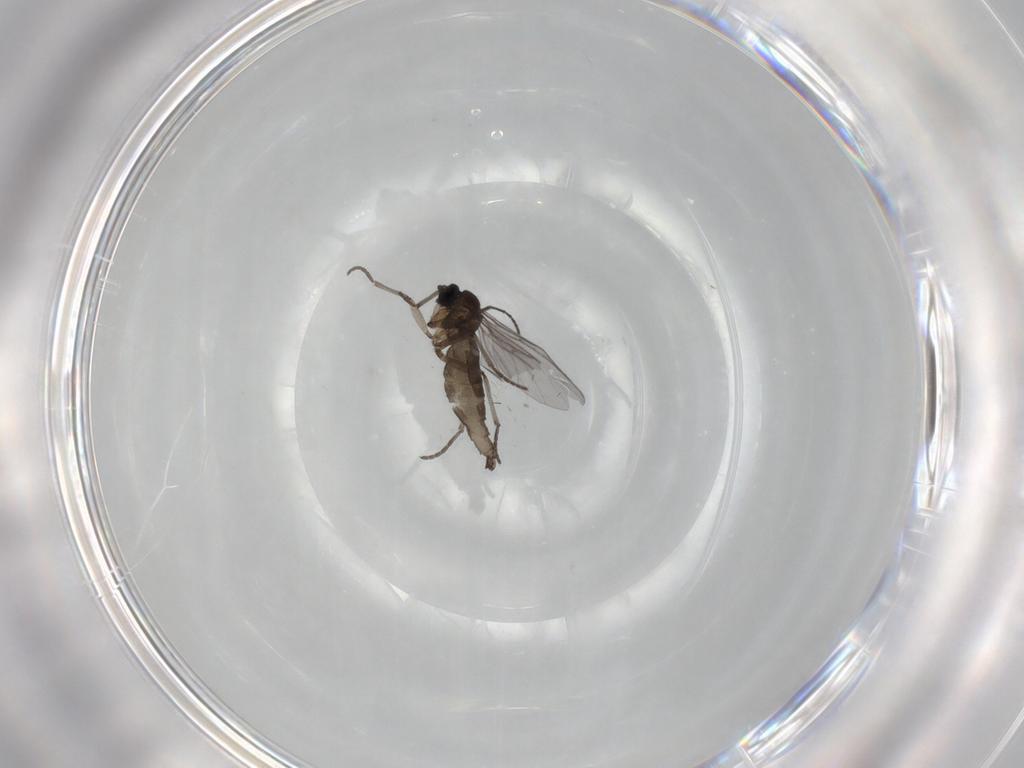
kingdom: Animalia
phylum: Arthropoda
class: Insecta
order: Diptera
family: Sciaridae
